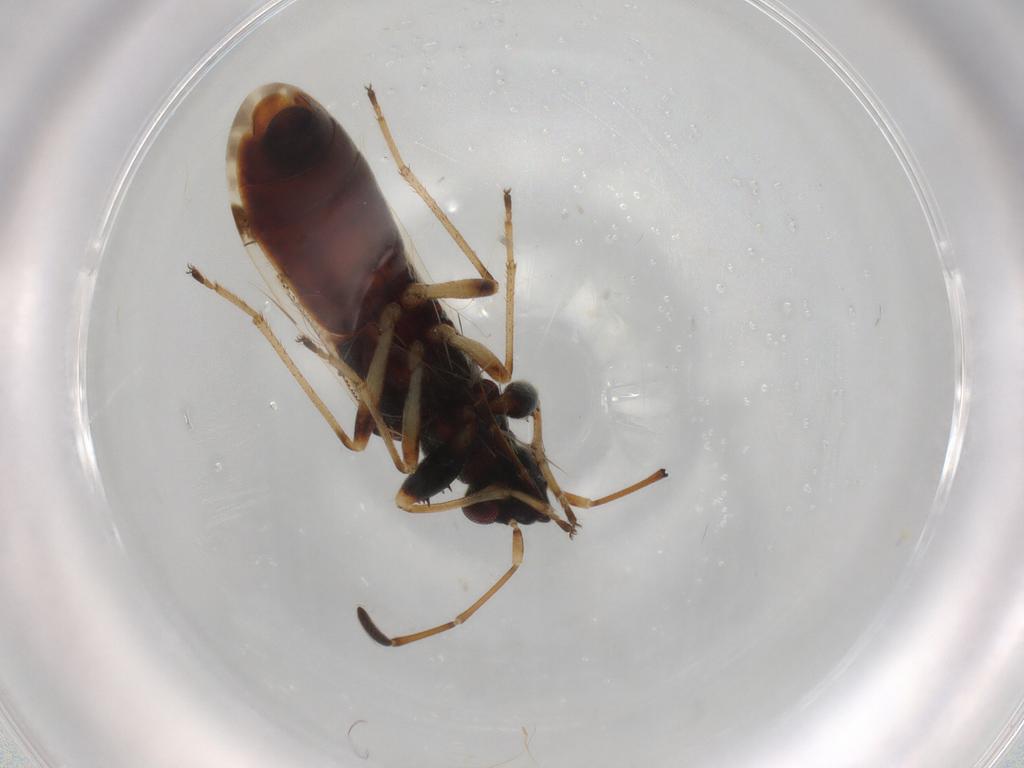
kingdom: Animalia
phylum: Arthropoda
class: Insecta
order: Hemiptera
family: Rhyparochromidae
